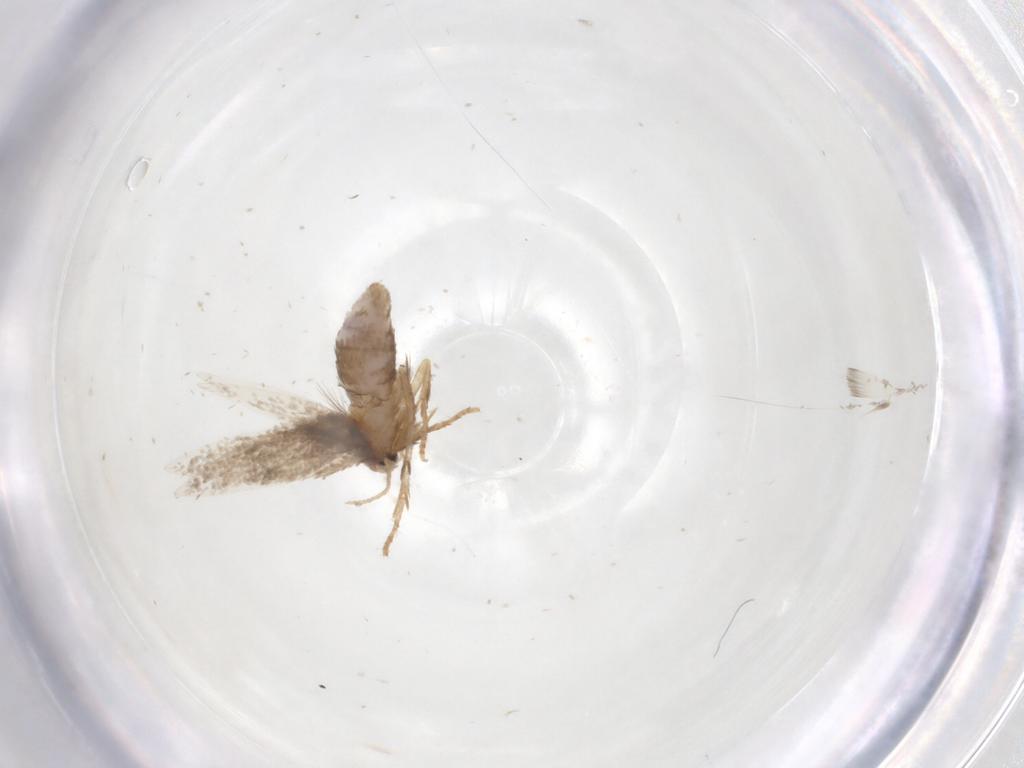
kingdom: Animalia
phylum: Arthropoda
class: Insecta
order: Lepidoptera
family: Nepticulidae
